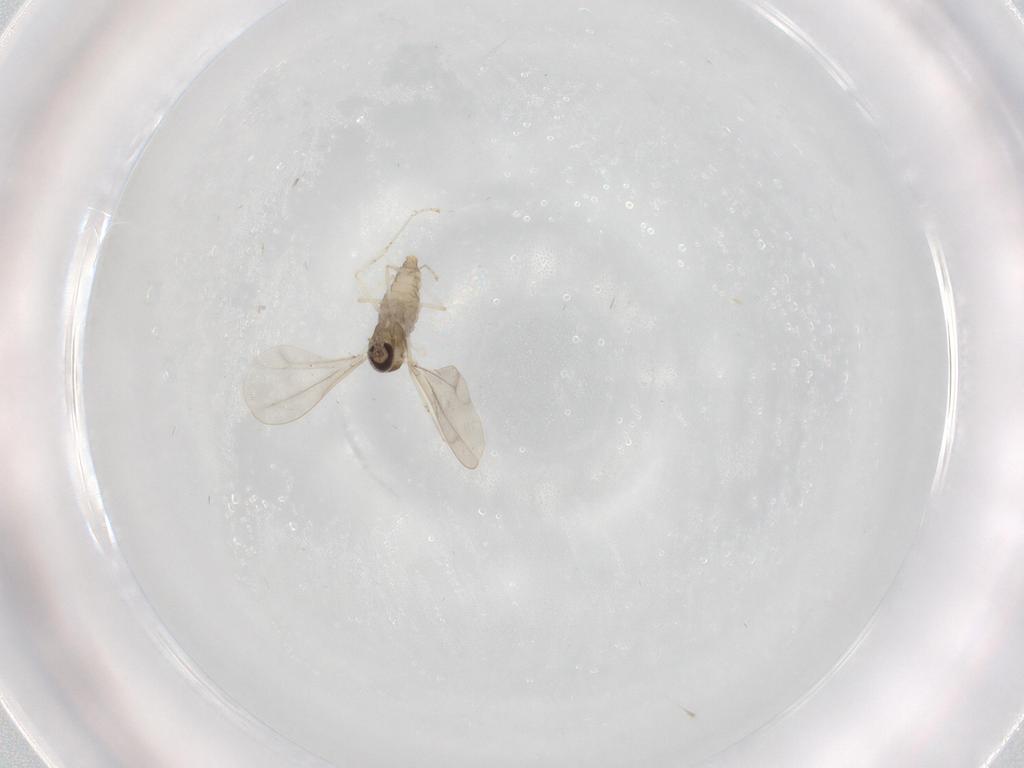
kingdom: Animalia
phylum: Arthropoda
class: Insecta
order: Diptera
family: Cecidomyiidae
